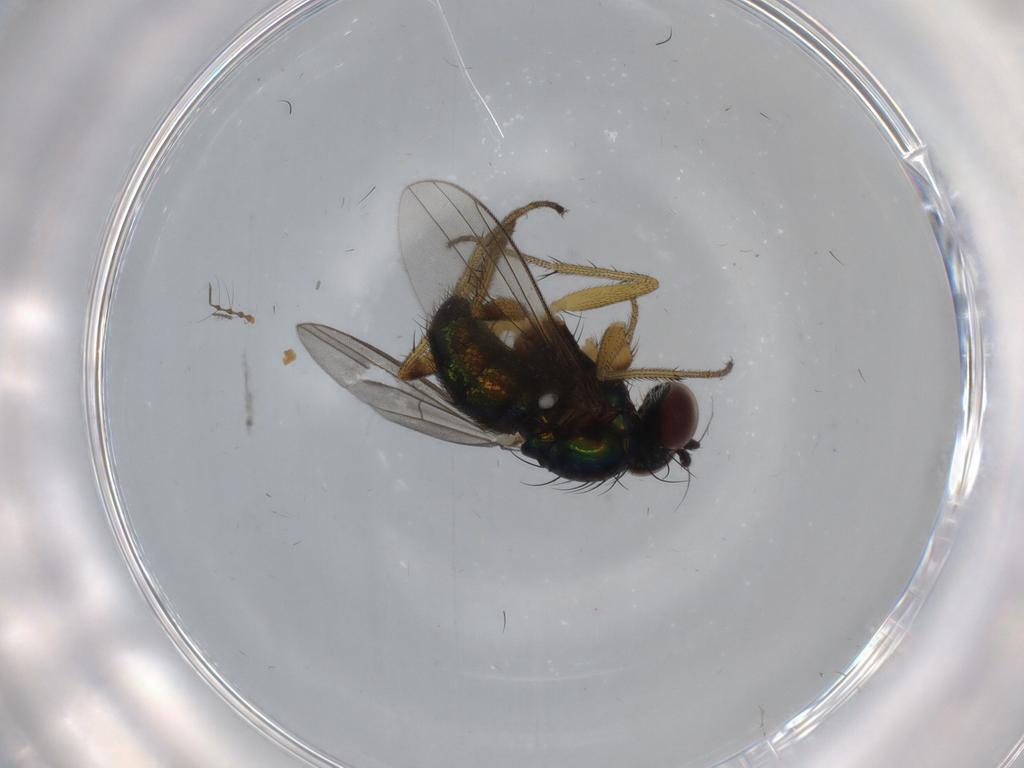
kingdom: Animalia
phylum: Arthropoda
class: Insecta
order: Diptera
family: Dolichopodidae
